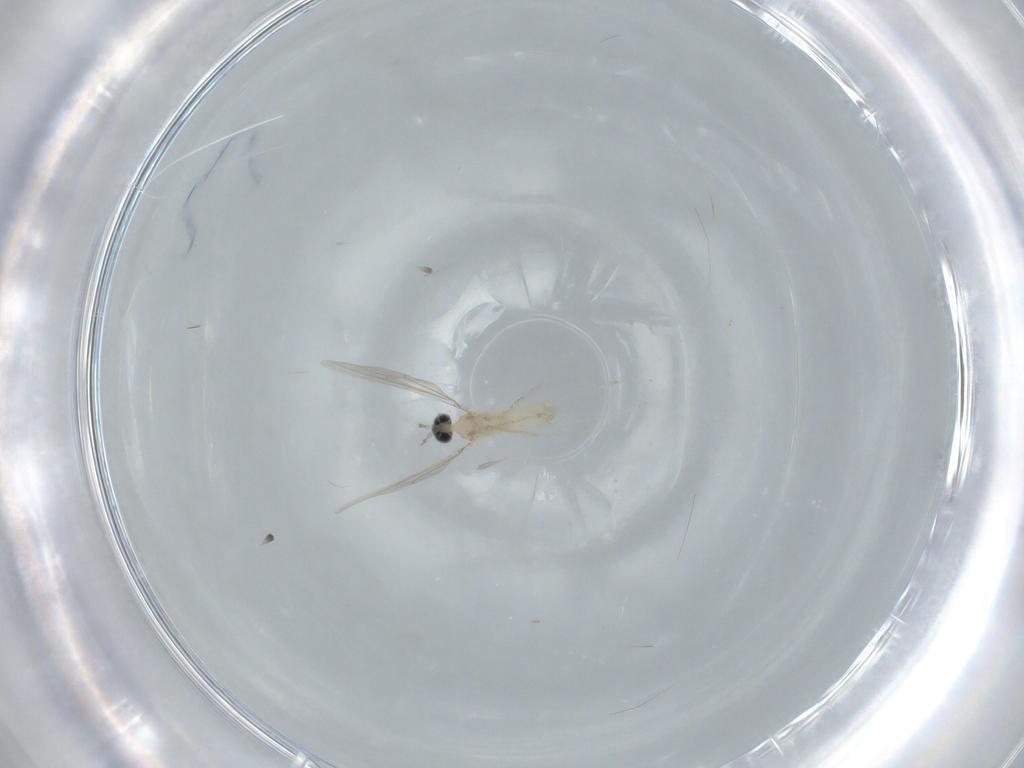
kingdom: Animalia
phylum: Arthropoda
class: Insecta
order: Diptera
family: Cecidomyiidae
